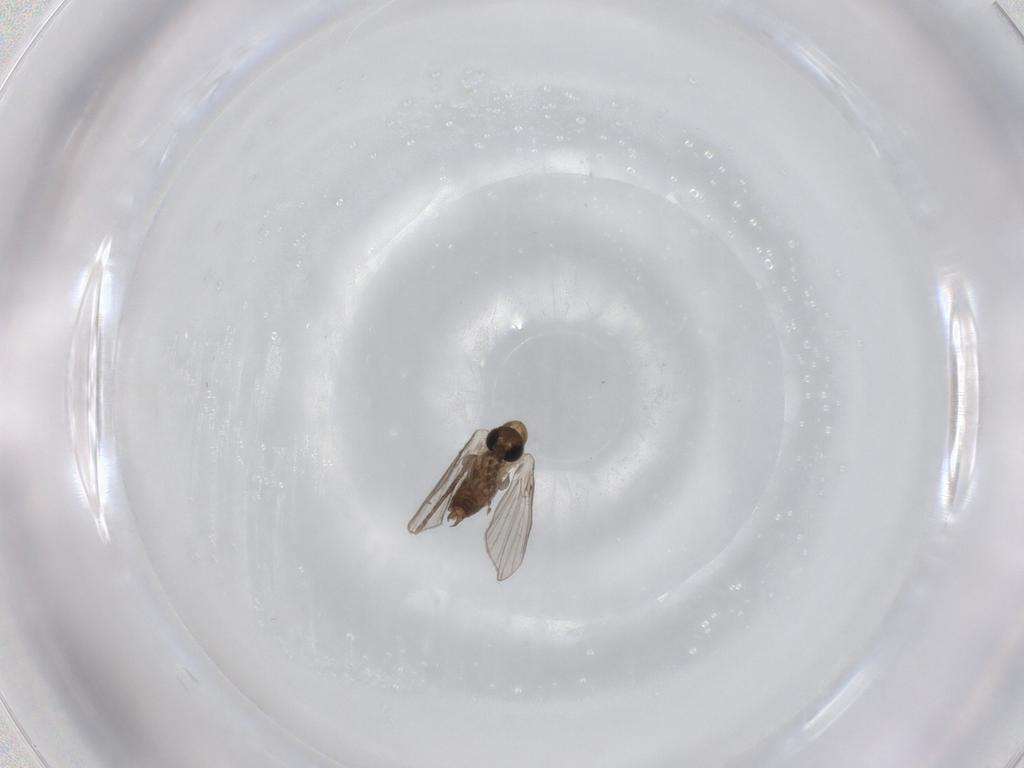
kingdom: Animalia
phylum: Arthropoda
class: Insecta
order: Diptera
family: Psychodidae
